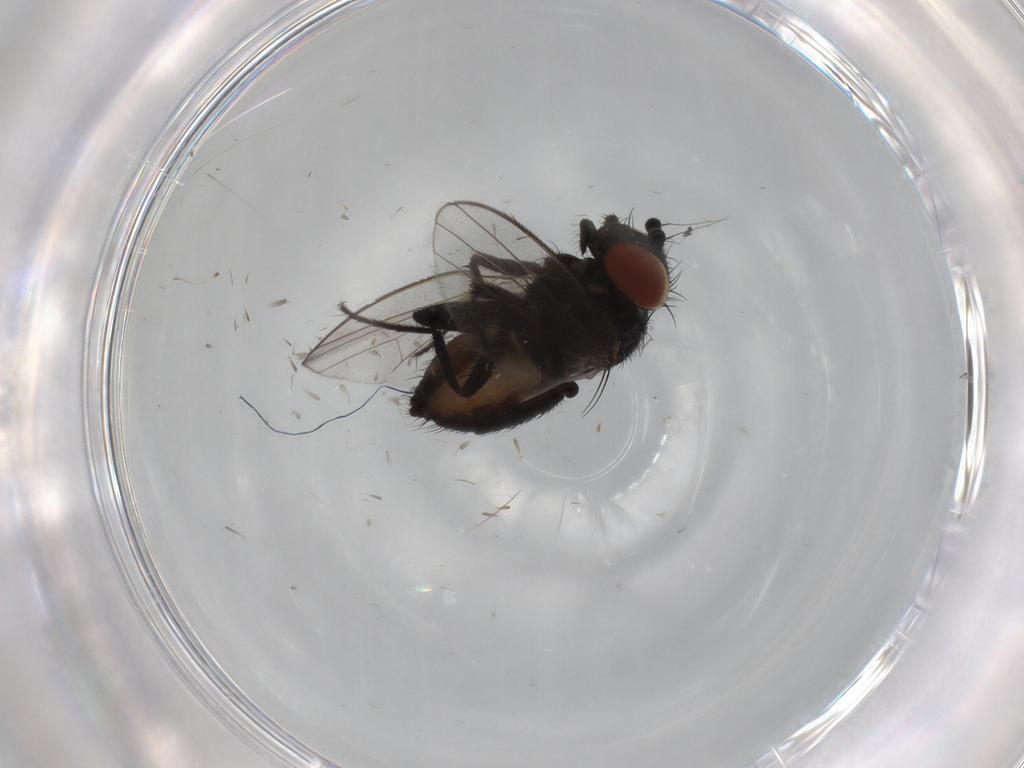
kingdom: Animalia
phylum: Arthropoda
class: Insecta
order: Diptera
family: Milichiidae
